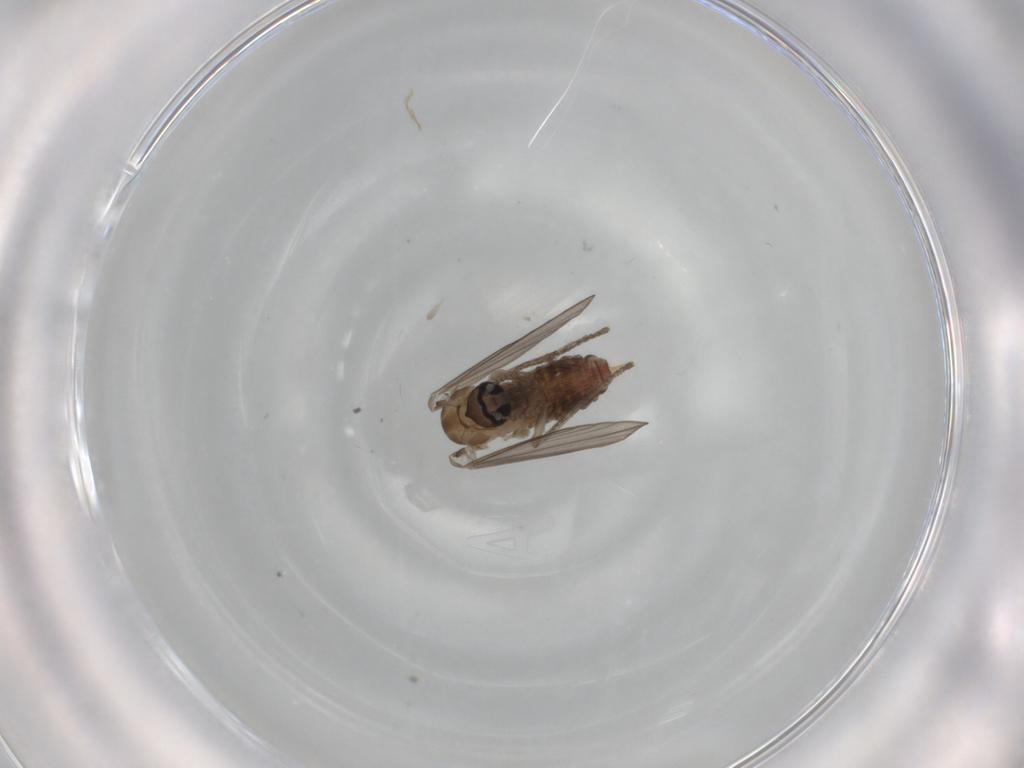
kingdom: Animalia
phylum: Arthropoda
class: Insecta
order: Diptera
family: Psychodidae
